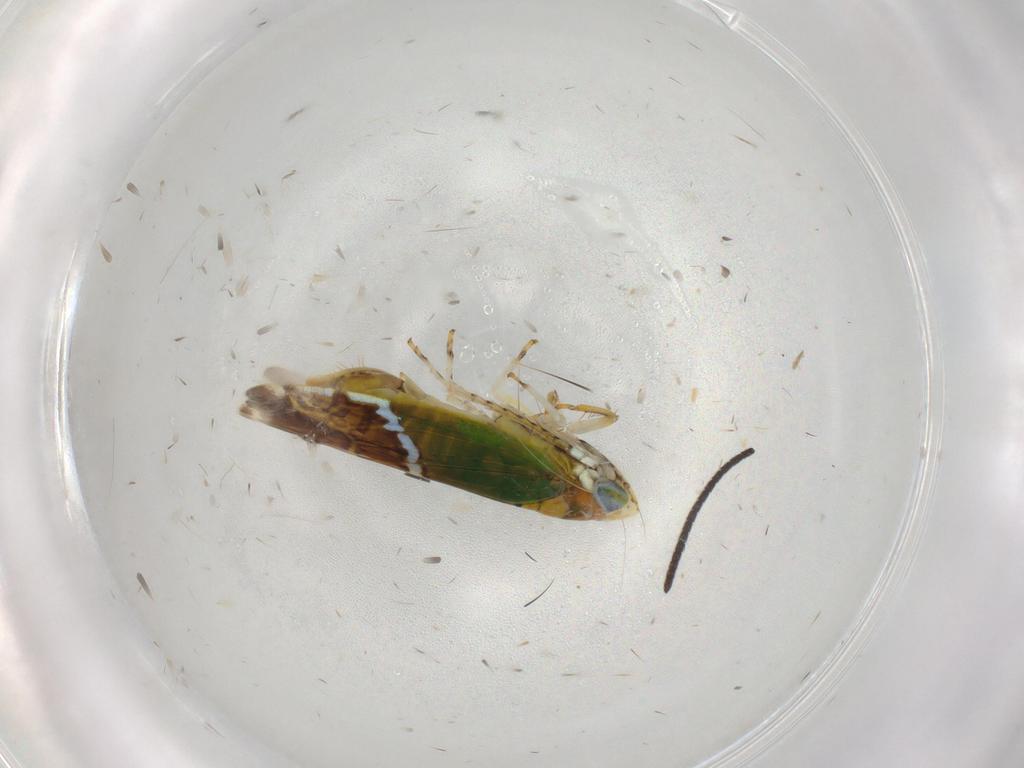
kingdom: Animalia
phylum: Arthropoda
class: Insecta
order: Hemiptera
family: Cicadellidae
